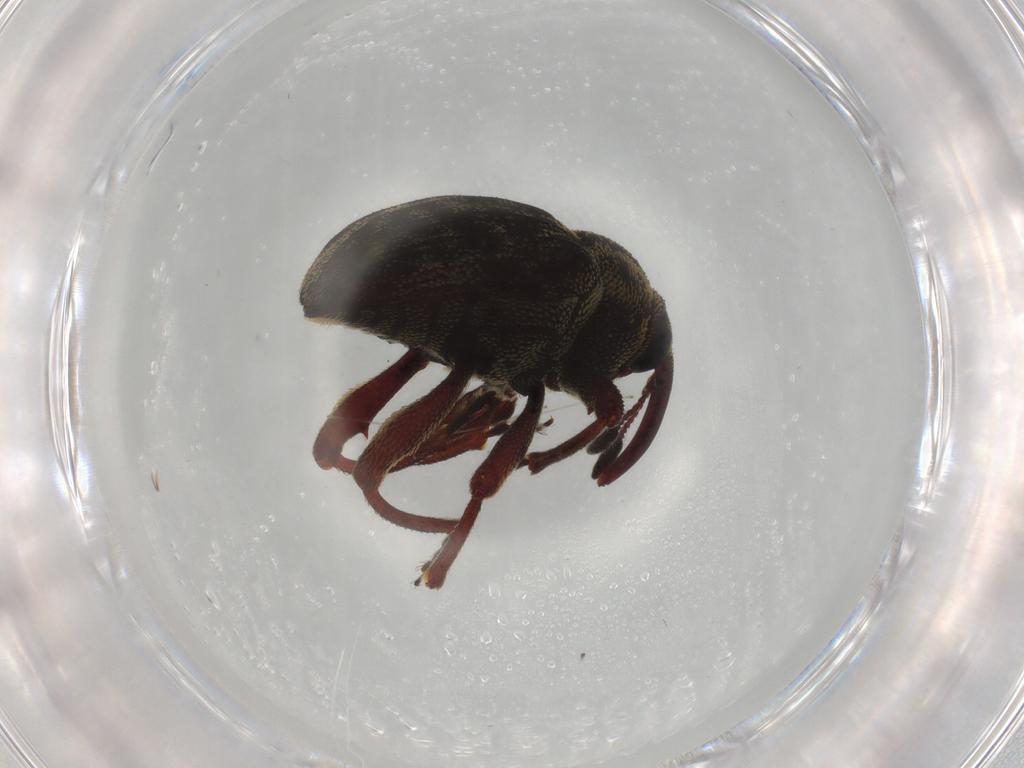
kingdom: Animalia
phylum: Arthropoda
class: Insecta
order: Coleoptera
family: Curculionidae
